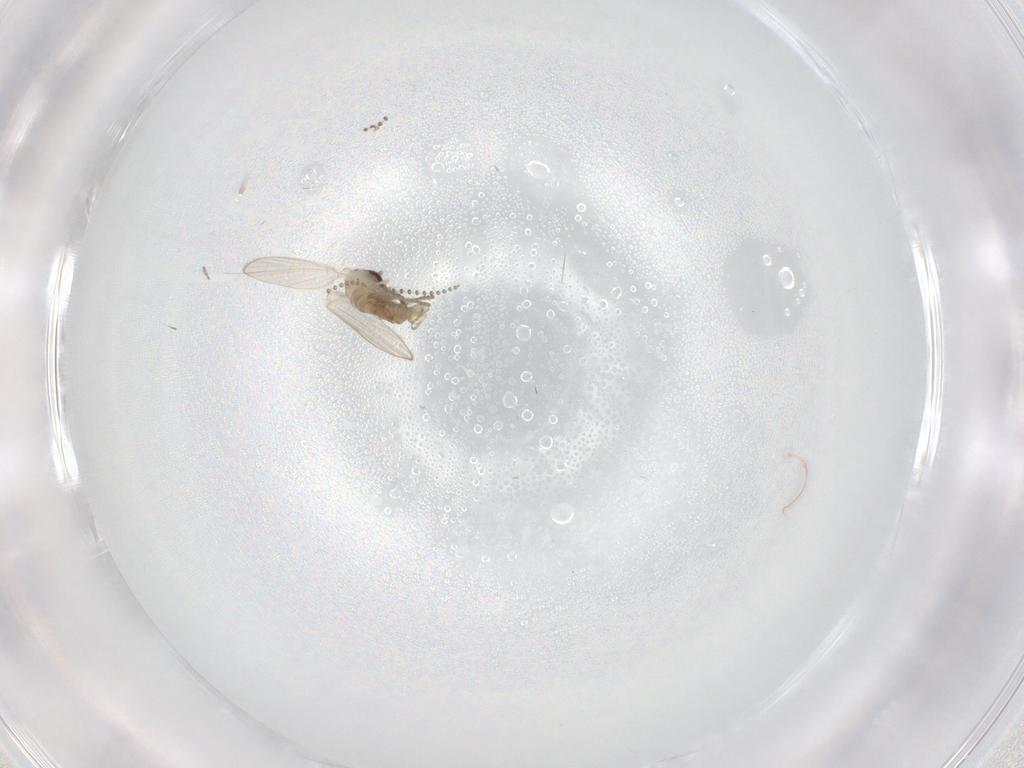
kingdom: Animalia
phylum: Arthropoda
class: Insecta
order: Diptera
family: Psychodidae
